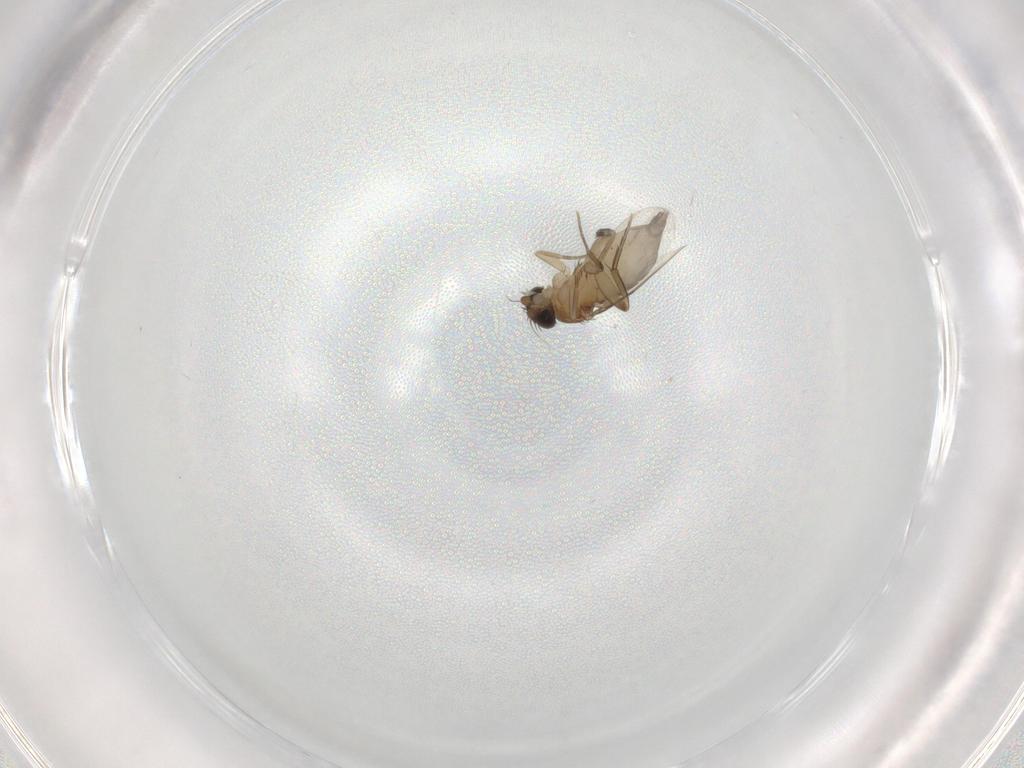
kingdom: Animalia
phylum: Arthropoda
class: Insecta
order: Diptera
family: Phoridae
